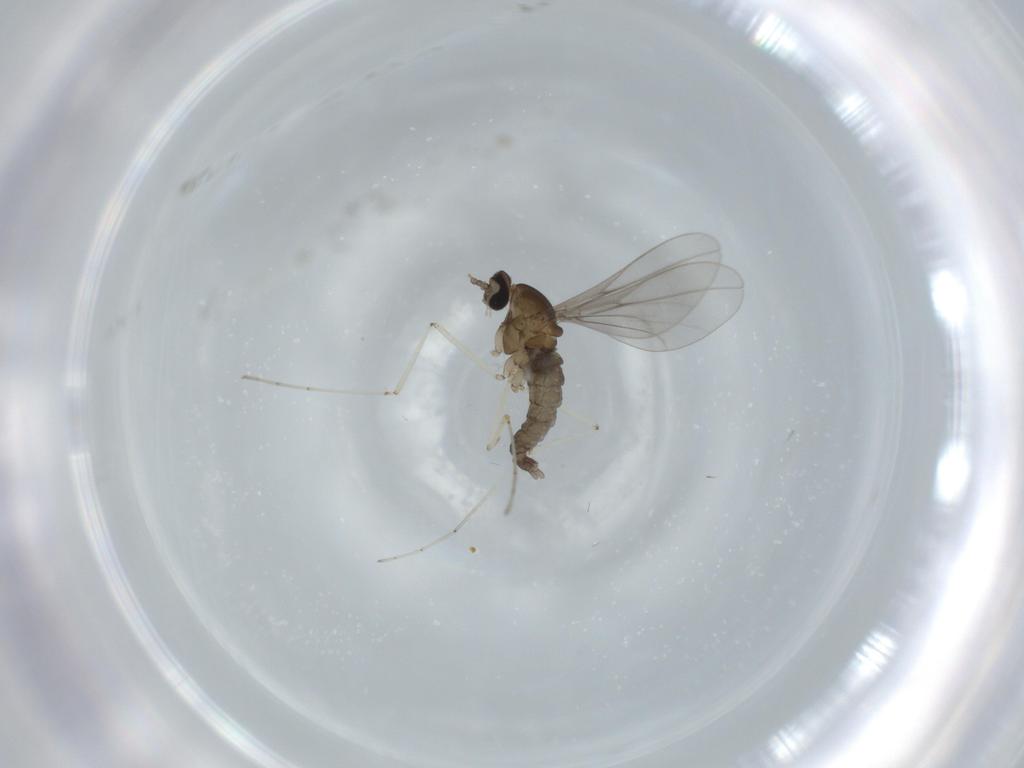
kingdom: Animalia
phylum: Arthropoda
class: Insecta
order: Diptera
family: Cecidomyiidae
